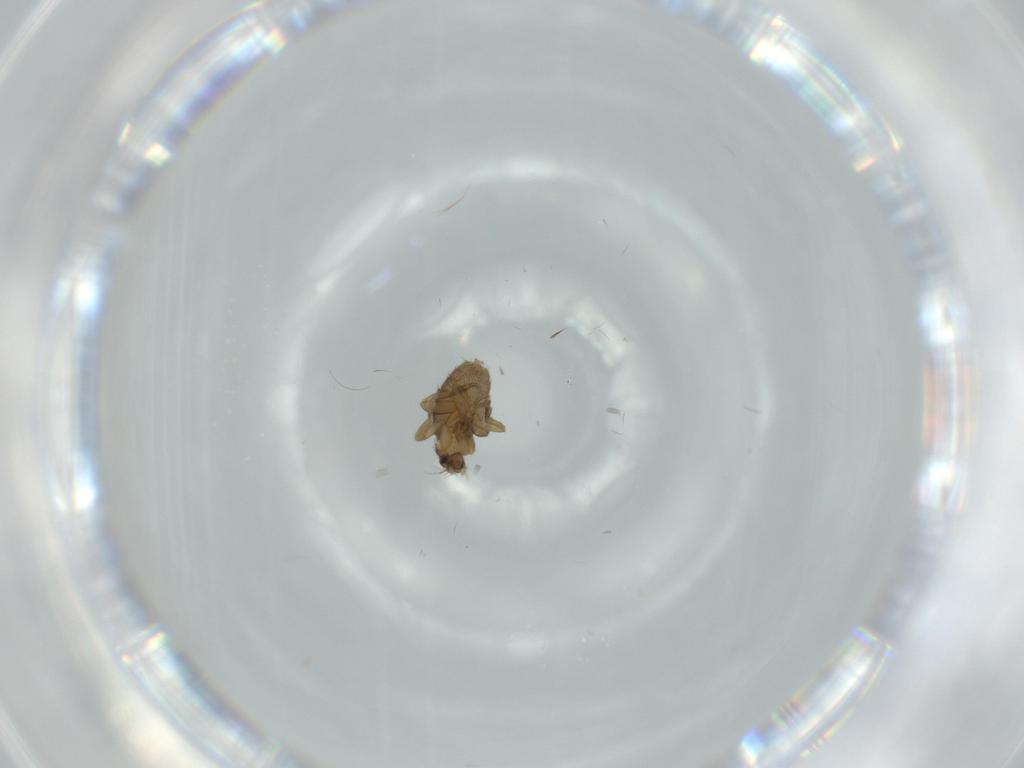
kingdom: Animalia
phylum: Arthropoda
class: Insecta
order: Diptera
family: Phoridae
